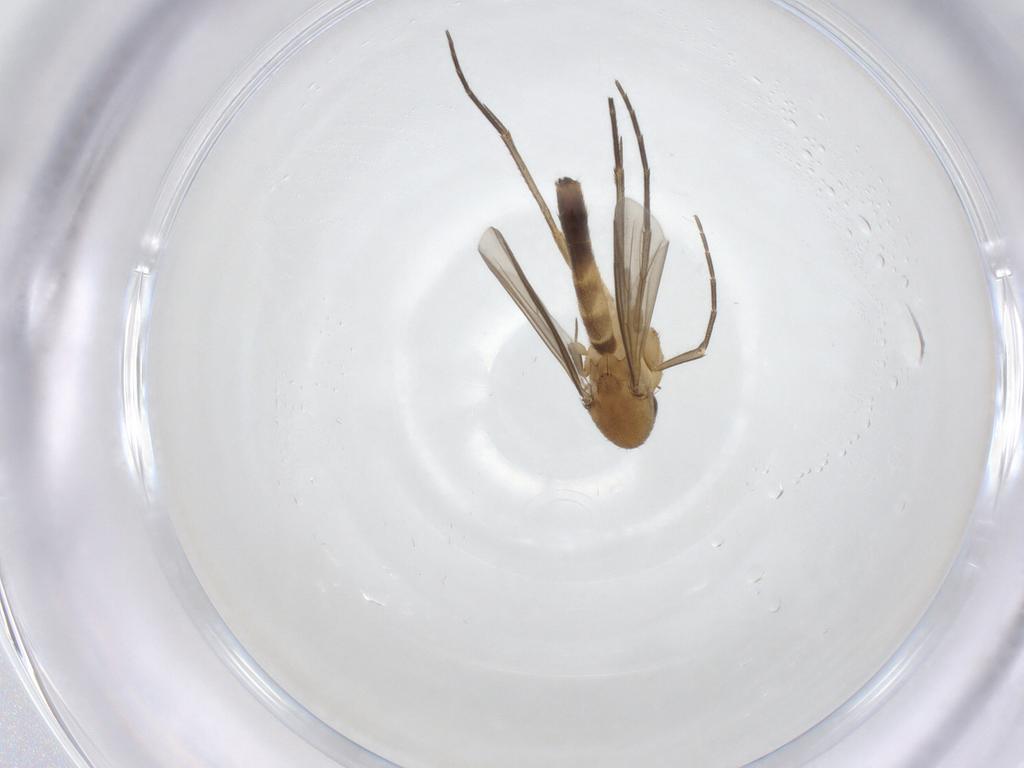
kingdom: Animalia
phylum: Arthropoda
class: Insecta
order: Diptera
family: Mycetophilidae
